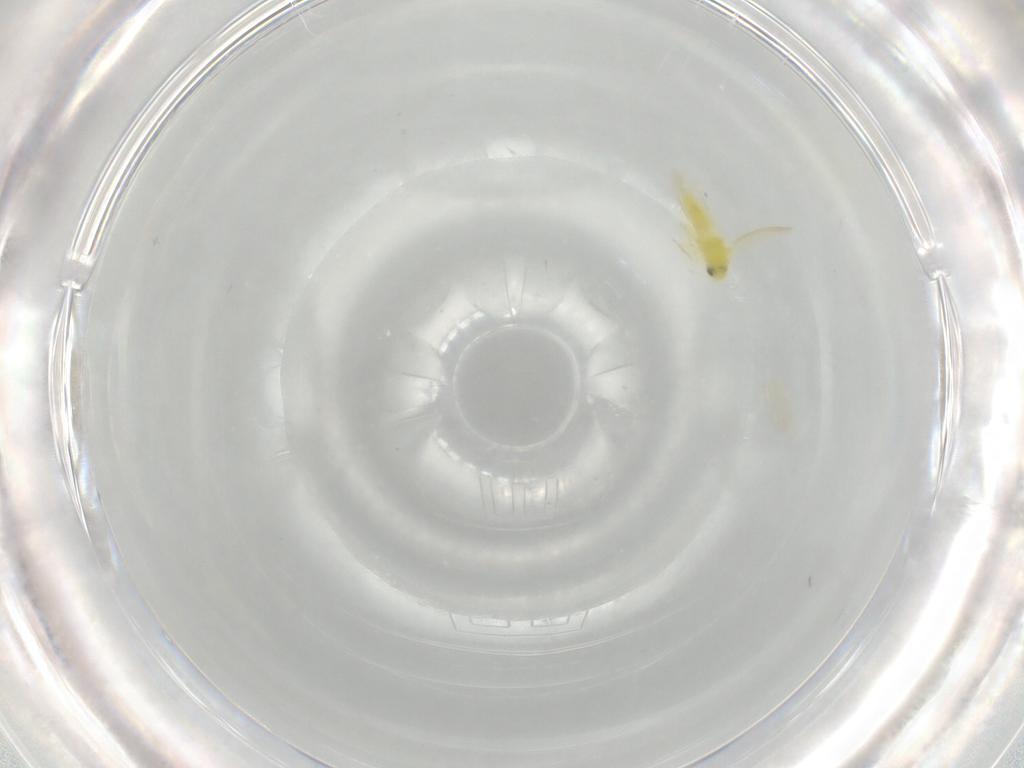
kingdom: Animalia
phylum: Arthropoda
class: Insecta
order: Hemiptera
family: Aleyrodidae
